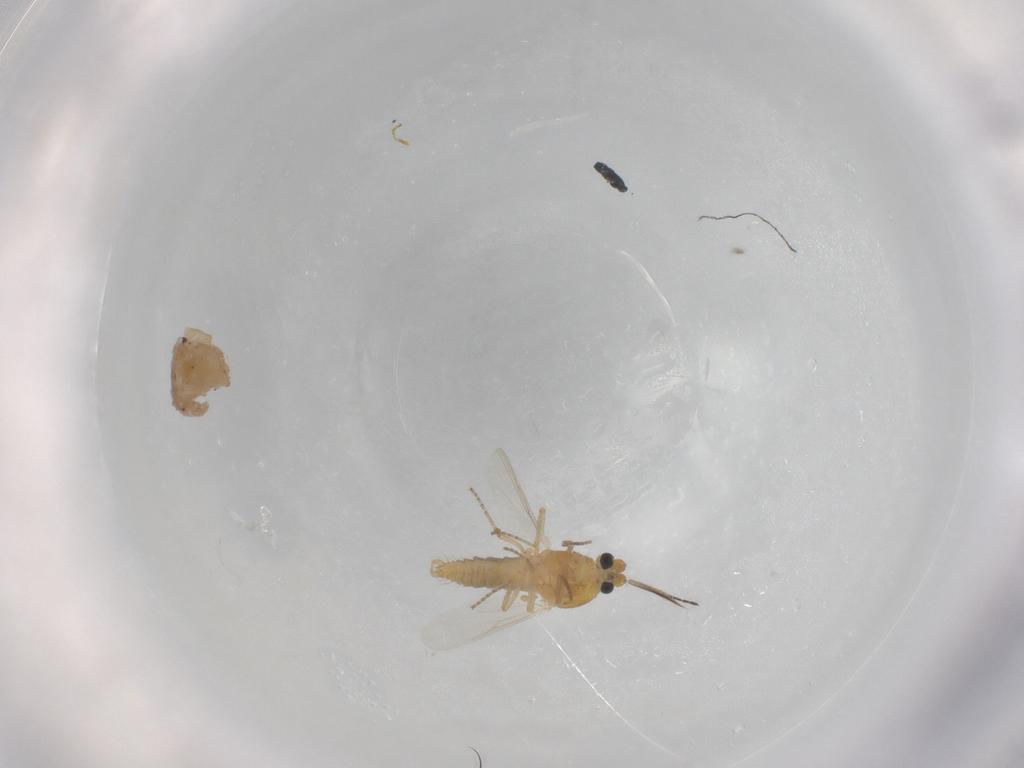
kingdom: Animalia
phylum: Arthropoda
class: Insecta
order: Diptera
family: Ceratopogonidae
